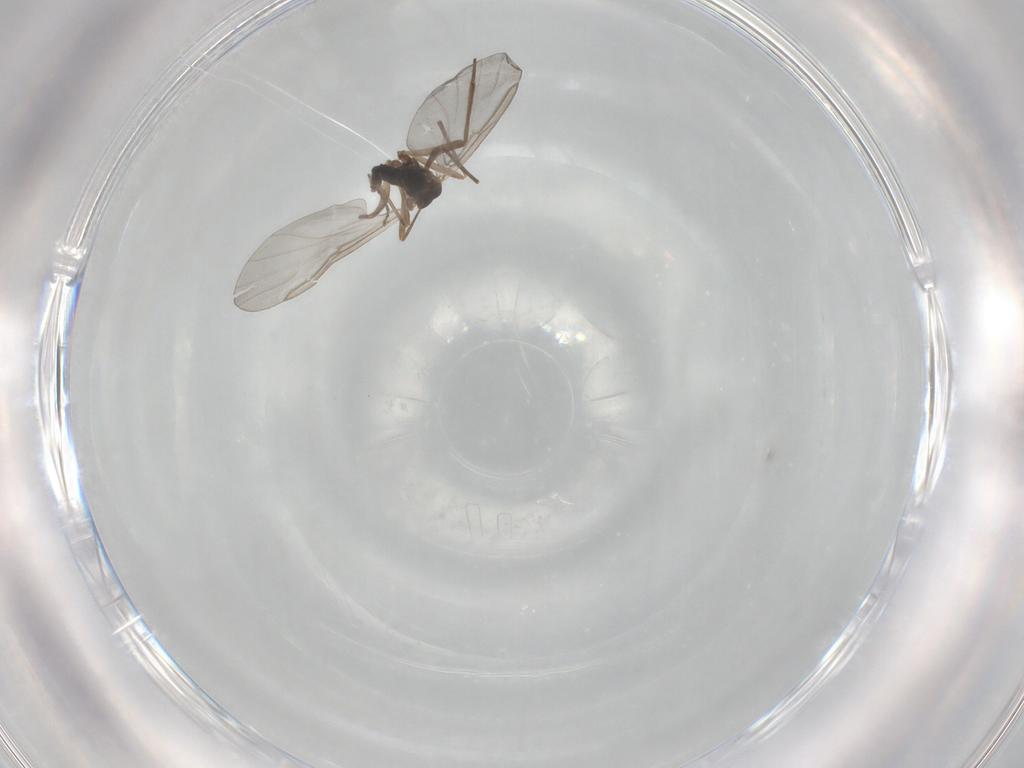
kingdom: Animalia
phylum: Arthropoda
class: Insecta
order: Diptera
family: Cecidomyiidae
